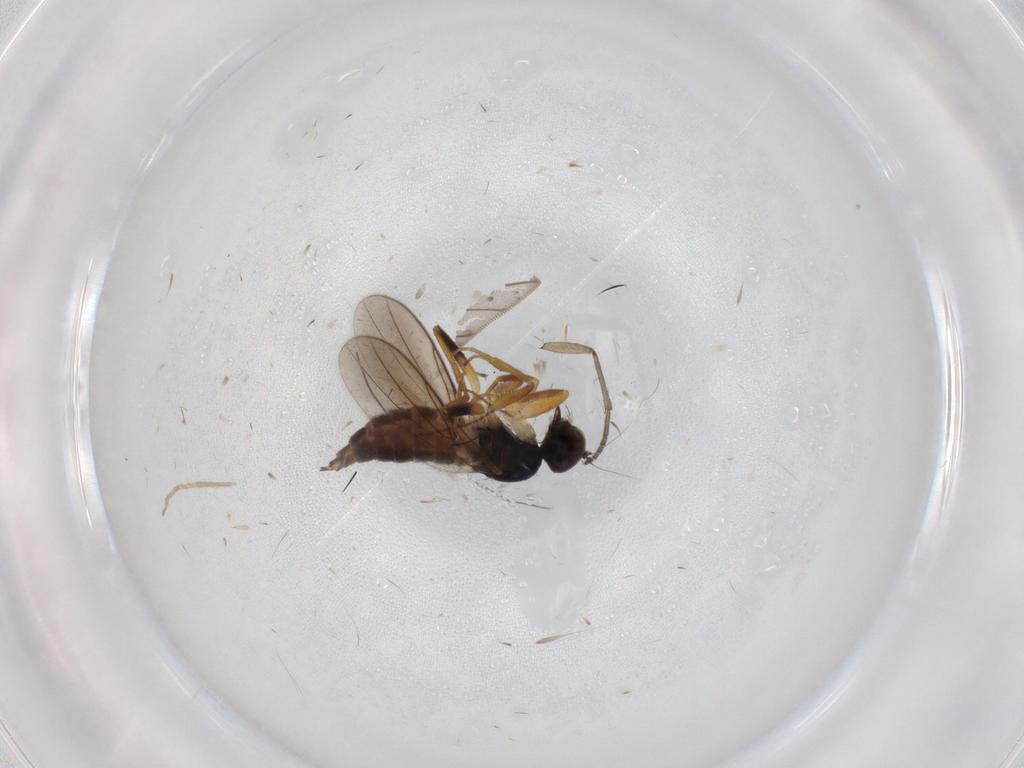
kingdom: Animalia
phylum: Arthropoda
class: Insecta
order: Diptera
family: Hybotidae
